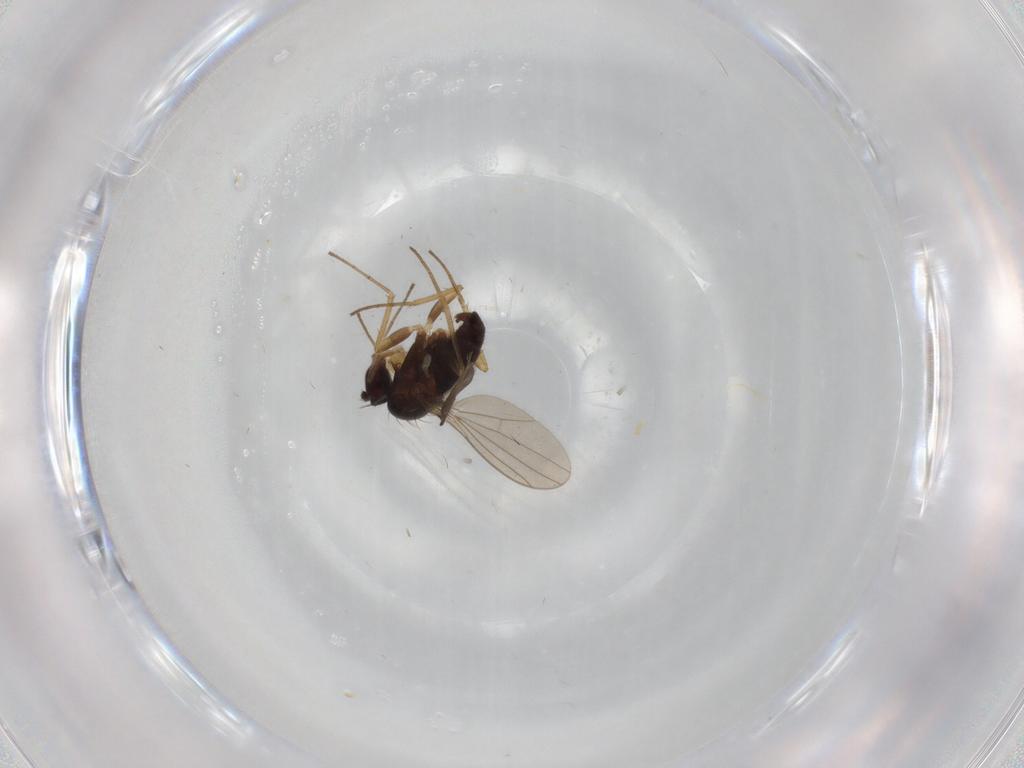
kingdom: Animalia
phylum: Arthropoda
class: Insecta
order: Diptera
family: Dolichopodidae
